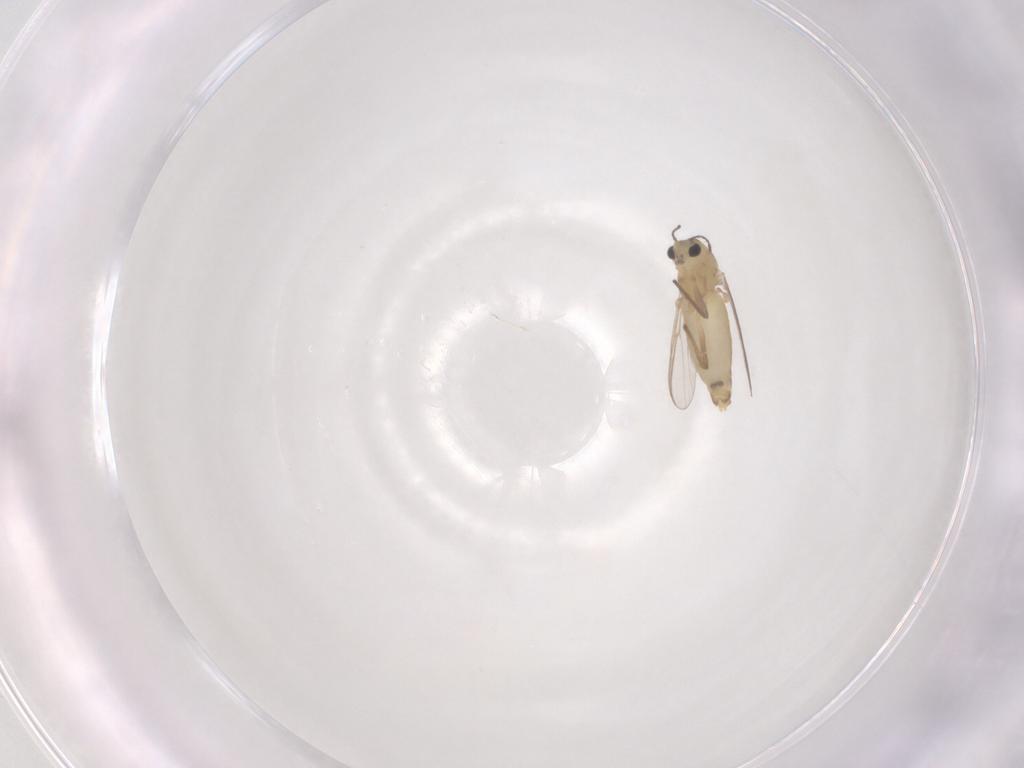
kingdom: Animalia
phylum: Arthropoda
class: Insecta
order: Diptera
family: Chironomidae
